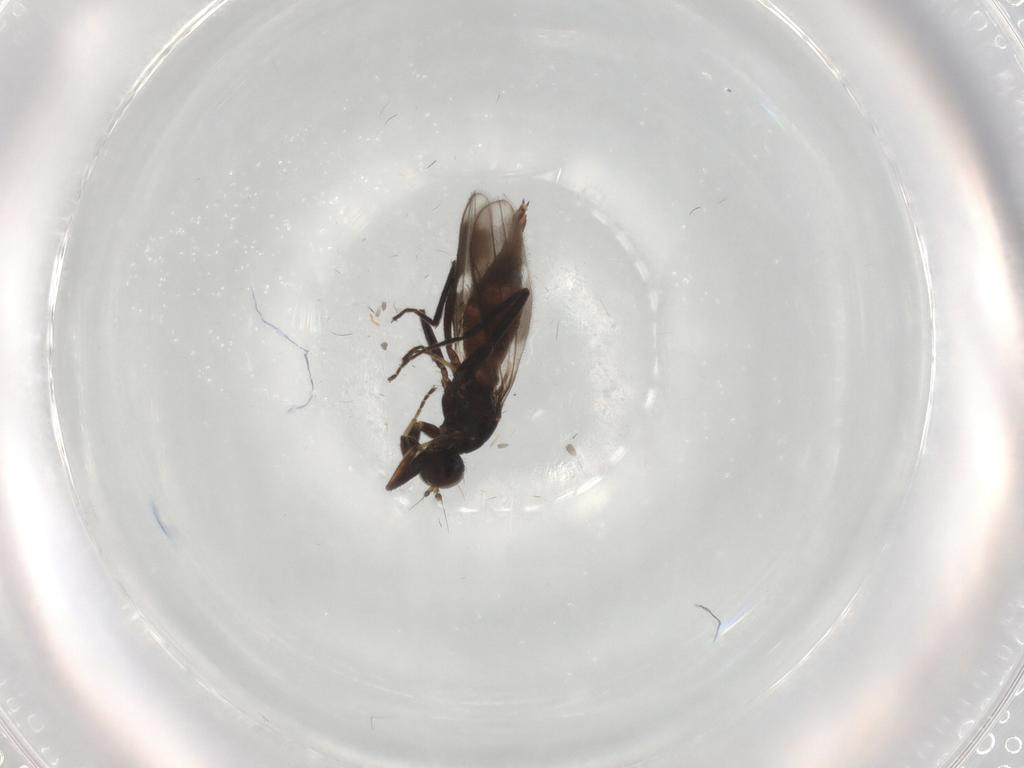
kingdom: Animalia
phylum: Arthropoda
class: Insecta
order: Diptera
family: Hybotidae
